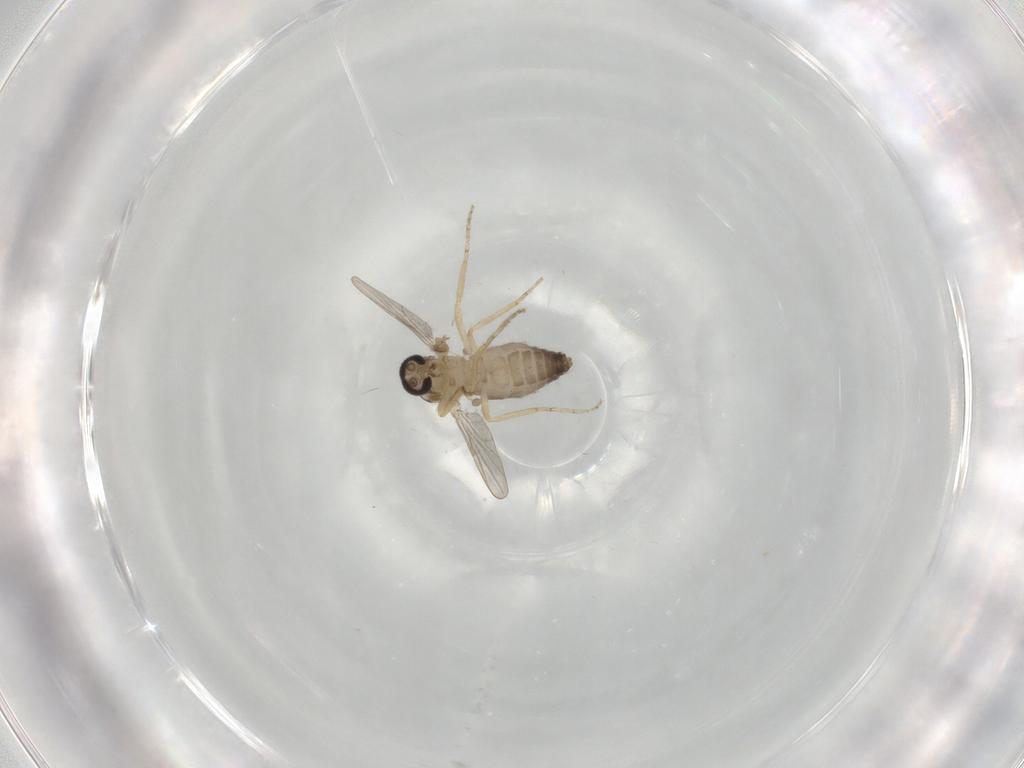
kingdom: Animalia
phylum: Arthropoda
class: Insecta
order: Diptera
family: Ceratopogonidae
